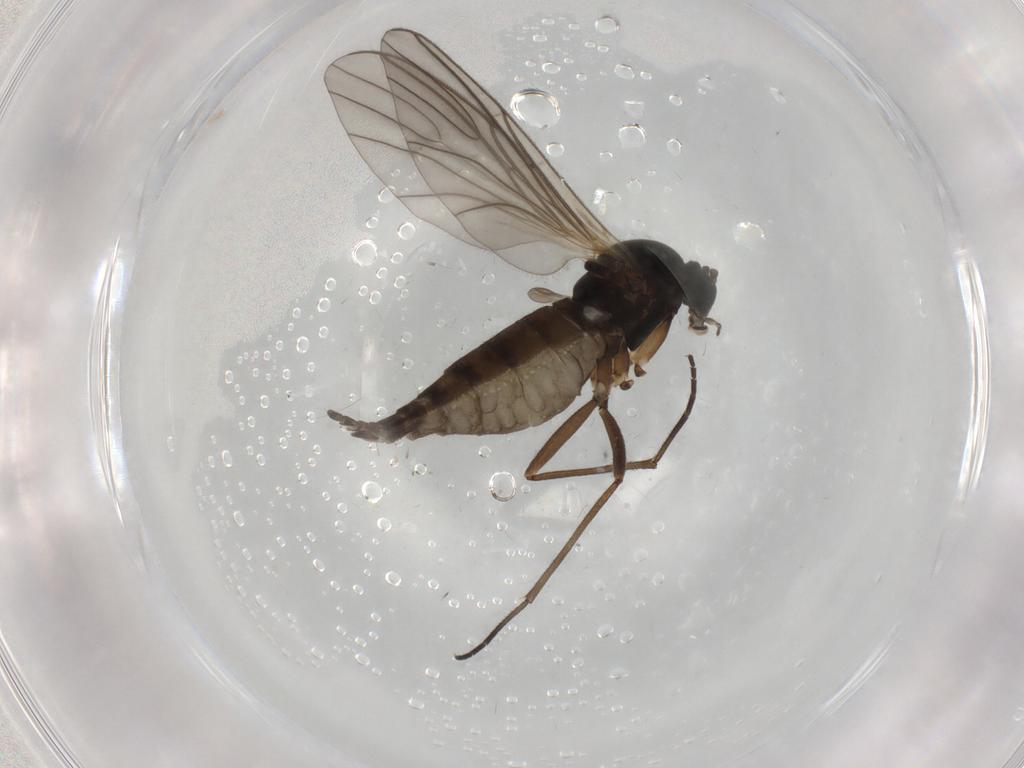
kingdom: Animalia
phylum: Arthropoda
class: Insecta
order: Diptera
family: Sciaridae
